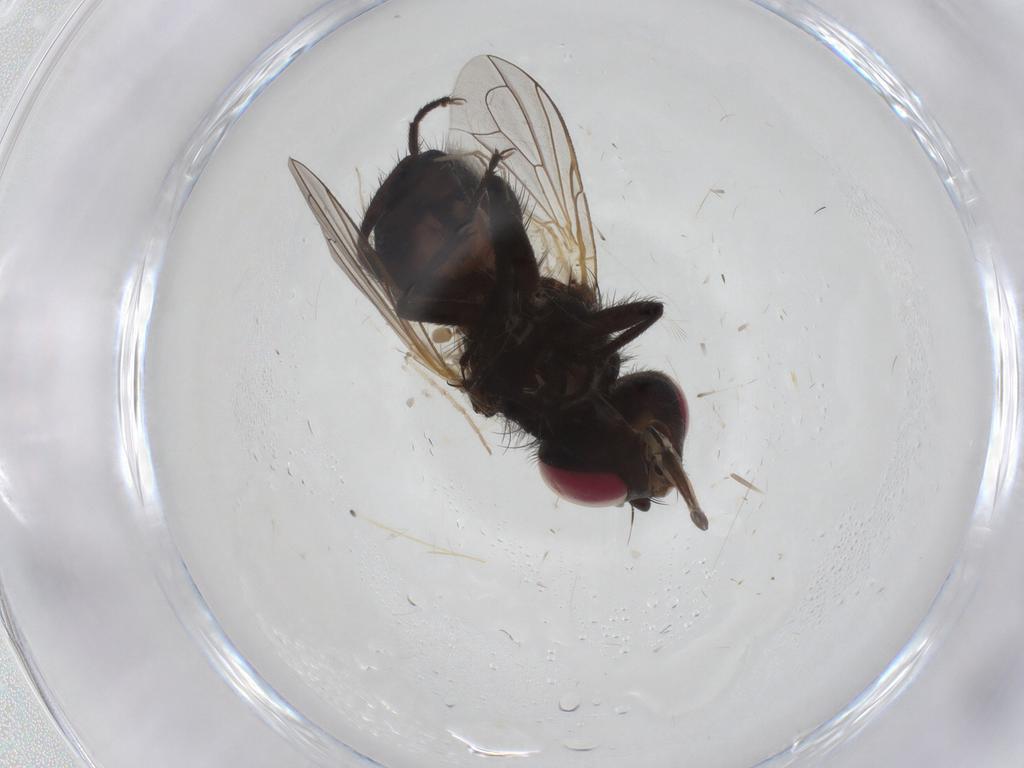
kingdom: Animalia
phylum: Arthropoda
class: Insecta
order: Diptera
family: Tachinidae
